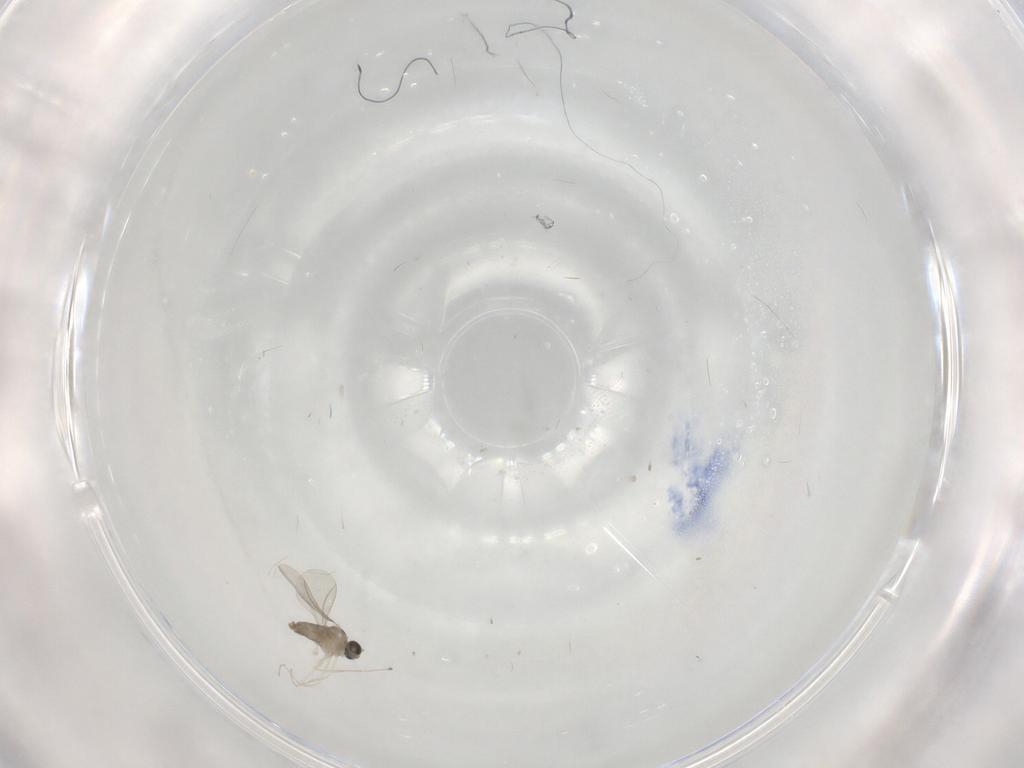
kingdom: Animalia
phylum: Arthropoda
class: Insecta
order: Diptera
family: Cecidomyiidae
